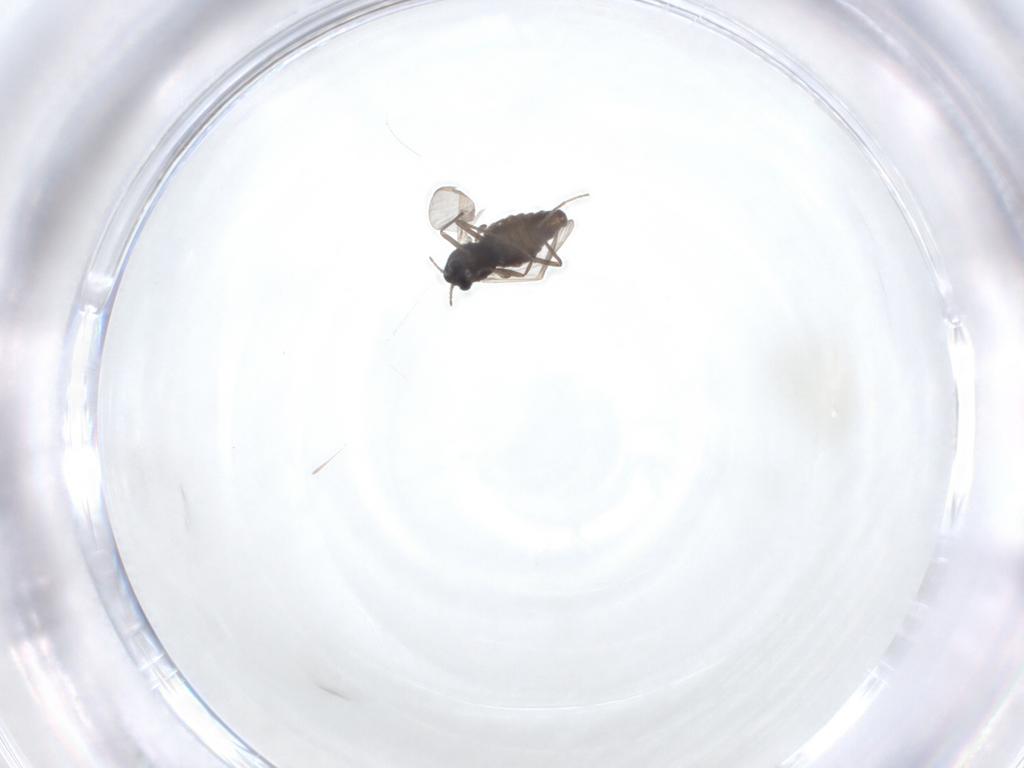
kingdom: Animalia
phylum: Arthropoda
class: Insecta
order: Diptera
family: Chironomidae
